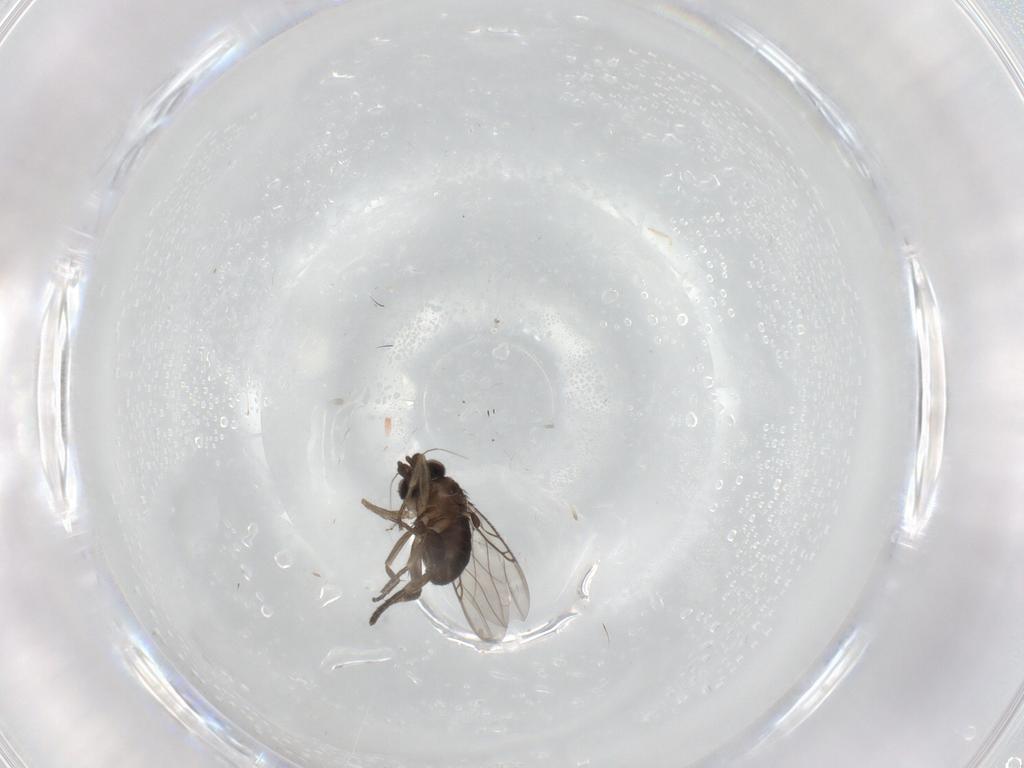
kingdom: Animalia
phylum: Arthropoda
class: Insecta
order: Diptera
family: Phoridae
